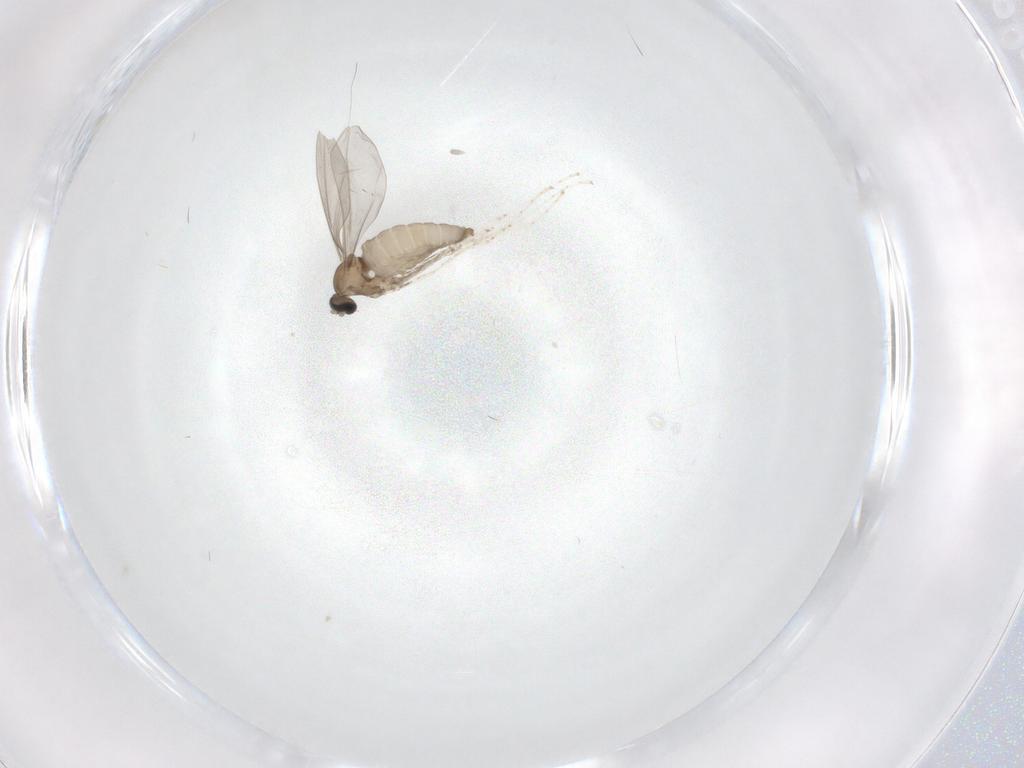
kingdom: Animalia
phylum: Arthropoda
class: Insecta
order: Diptera
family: Cecidomyiidae
